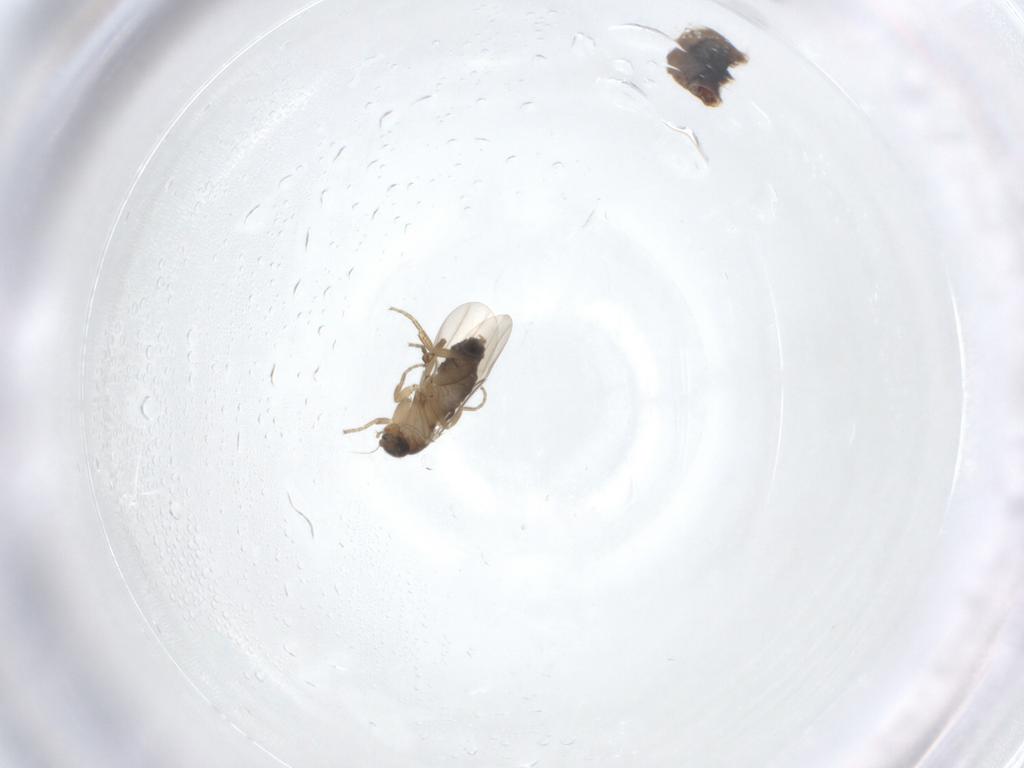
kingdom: Animalia
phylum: Arthropoda
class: Insecta
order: Diptera
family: Phoridae
